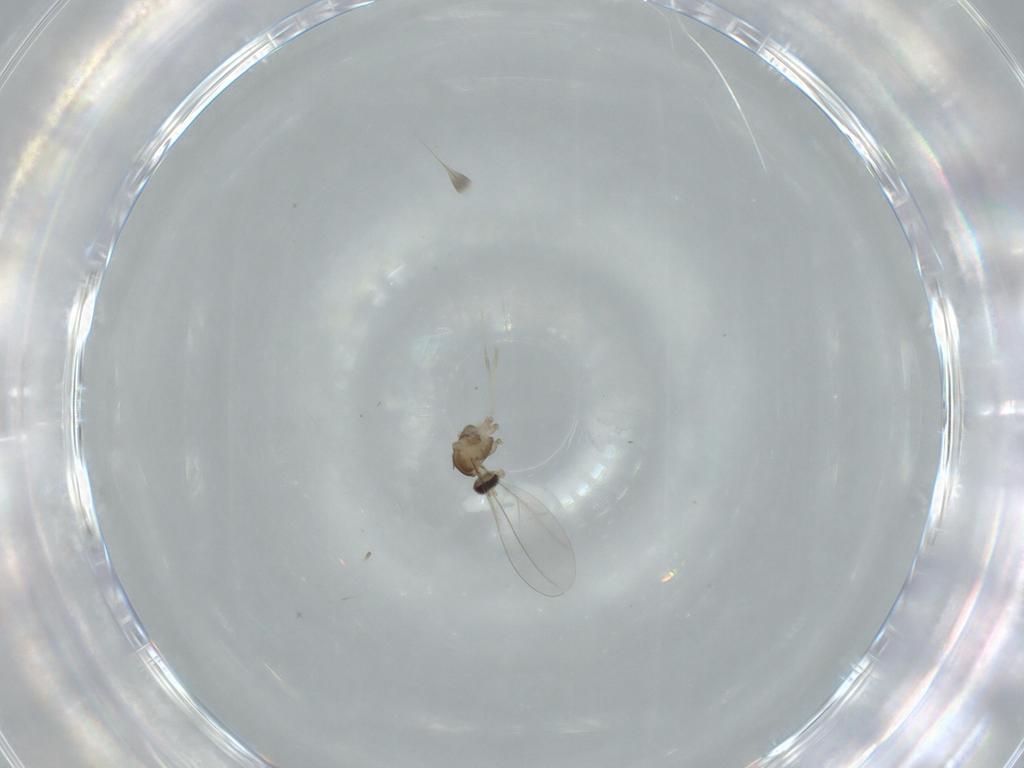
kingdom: Animalia
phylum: Arthropoda
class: Insecta
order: Diptera
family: Cecidomyiidae
